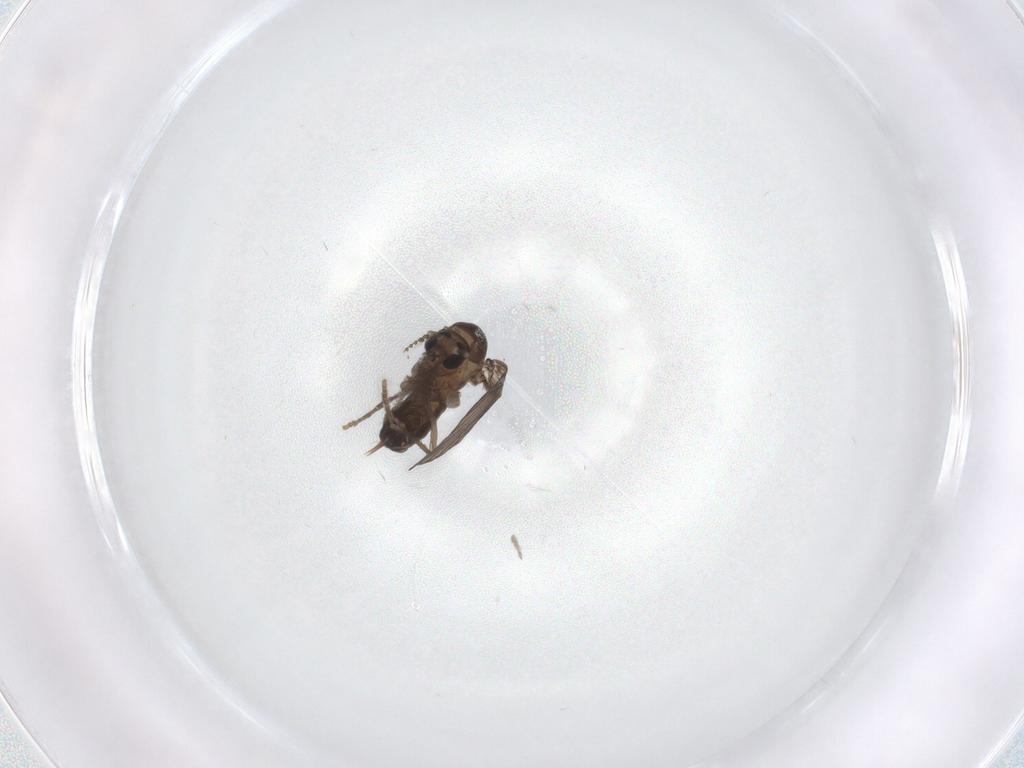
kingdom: Animalia
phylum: Arthropoda
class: Insecta
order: Diptera
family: Psychodidae
